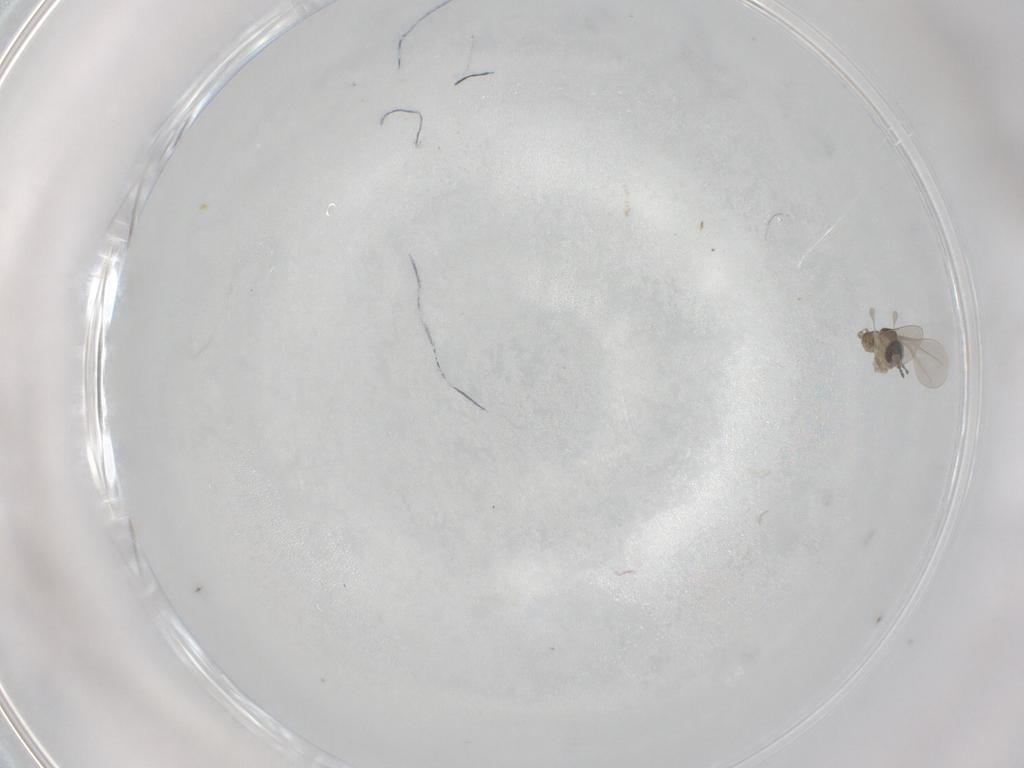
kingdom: Animalia
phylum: Arthropoda
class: Insecta
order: Diptera
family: Cecidomyiidae
